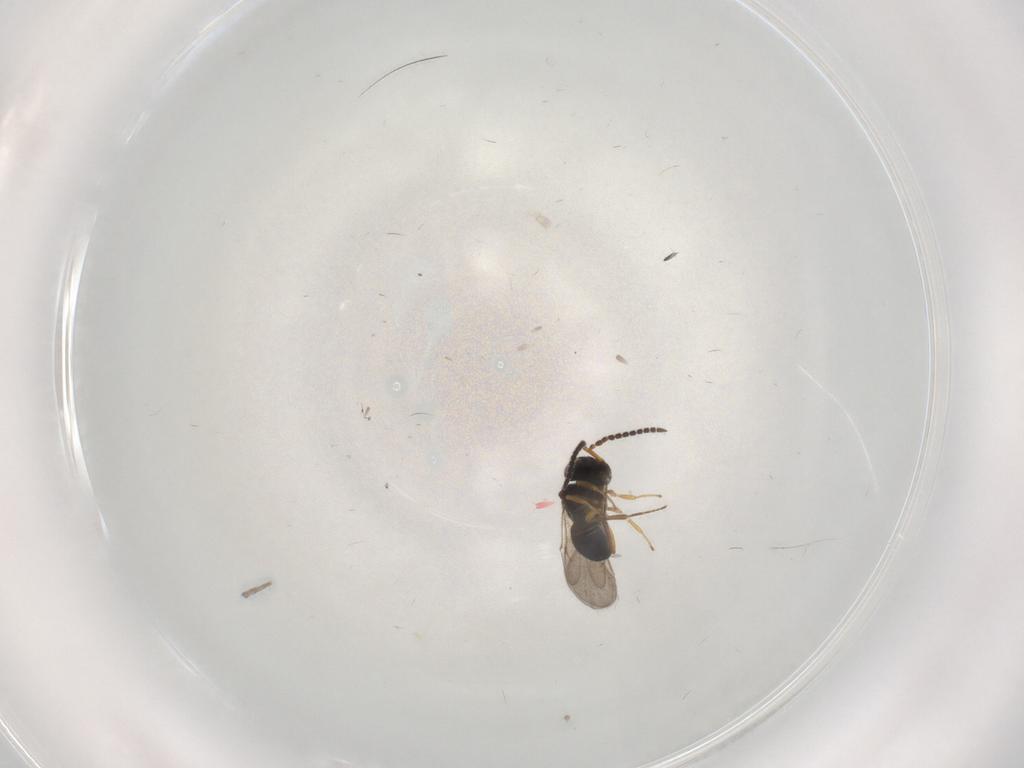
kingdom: Animalia
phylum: Arthropoda
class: Insecta
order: Hymenoptera
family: Scelionidae
